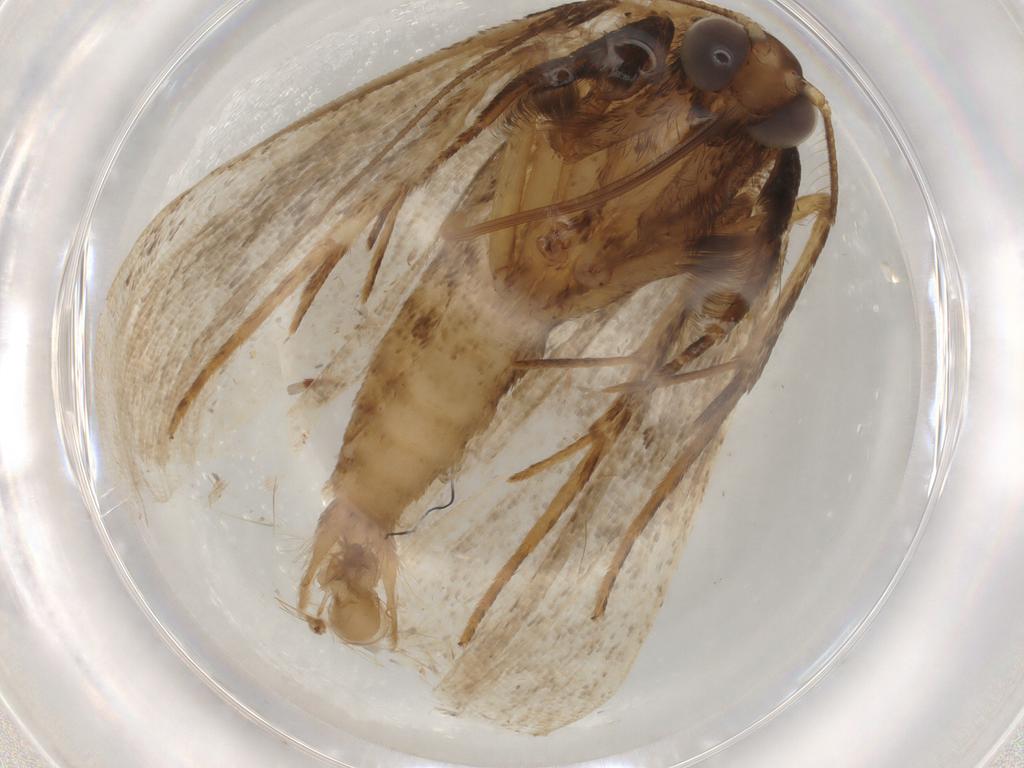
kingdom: Animalia
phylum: Arthropoda
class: Insecta
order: Lepidoptera
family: Erebidae
